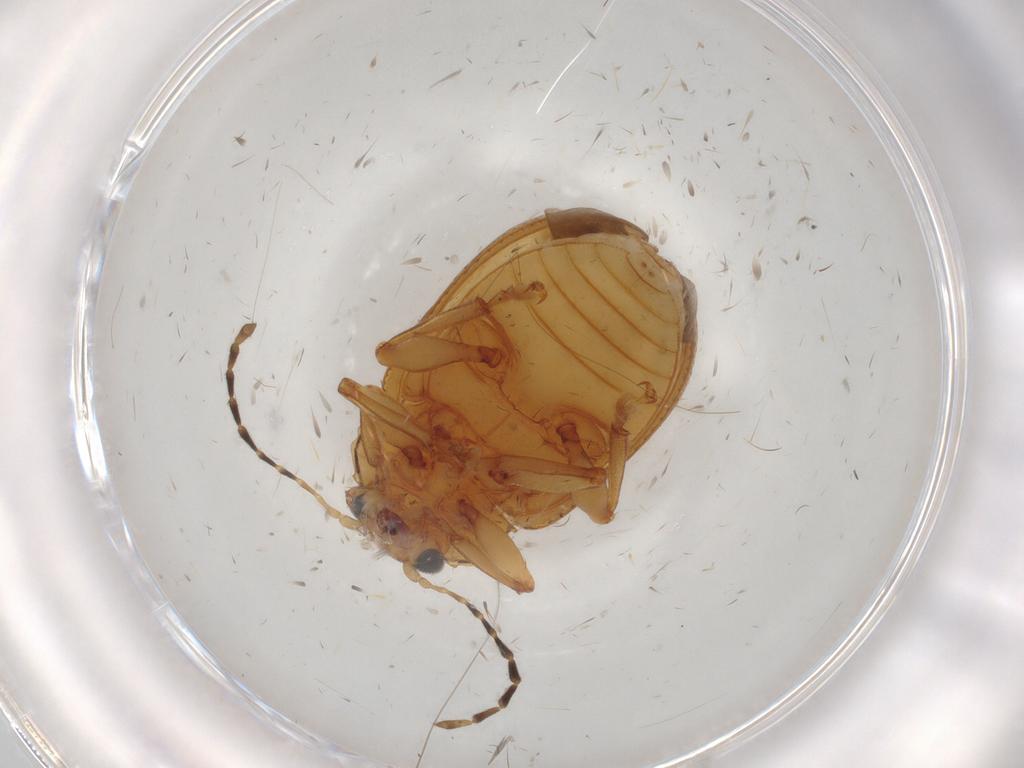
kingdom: Animalia
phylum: Arthropoda
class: Insecta
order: Coleoptera
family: Chrysomelidae
